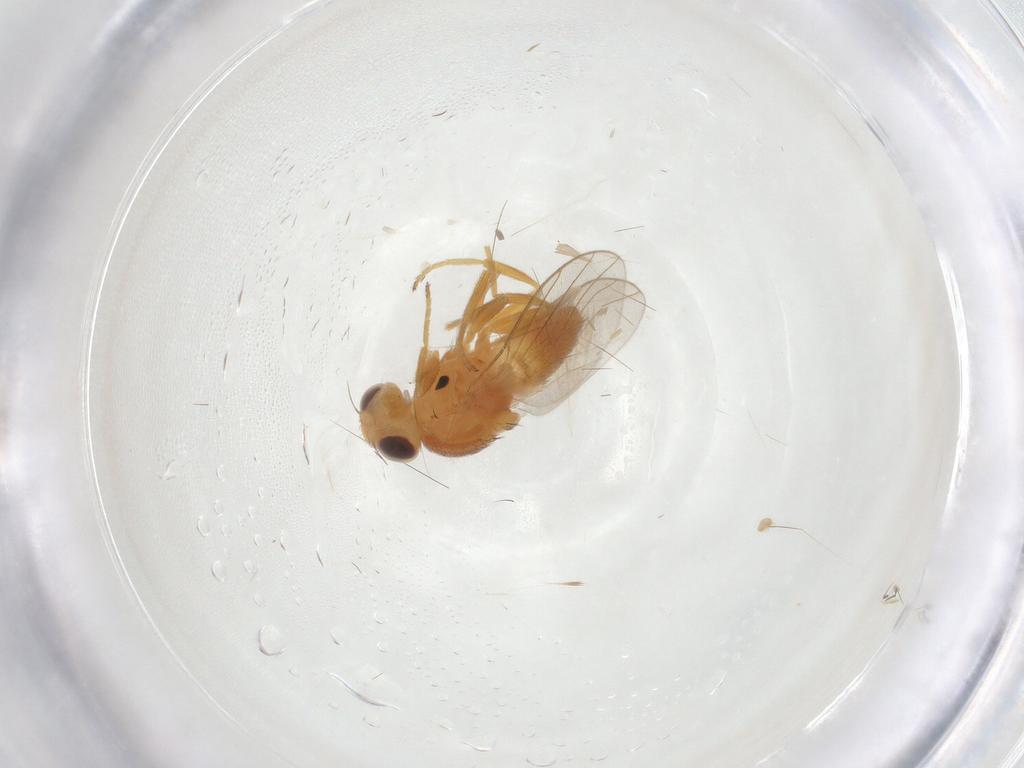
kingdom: Animalia
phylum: Arthropoda
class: Insecta
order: Diptera
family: Chloropidae
